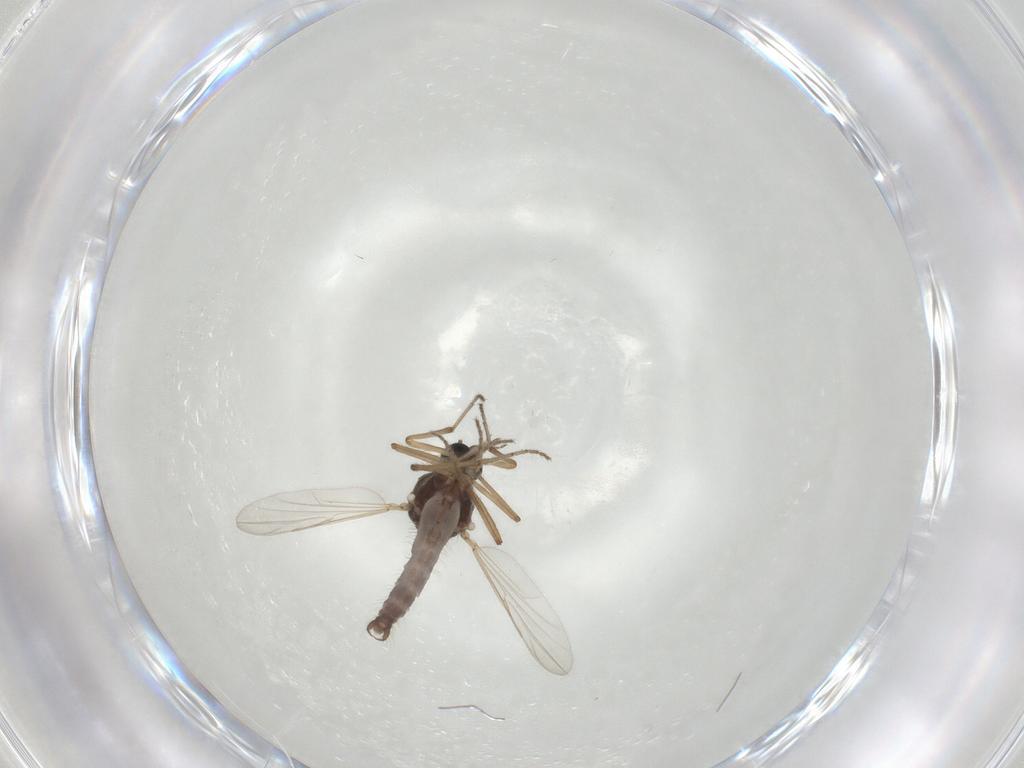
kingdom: Animalia
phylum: Arthropoda
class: Insecta
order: Diptera
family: Ceratopogonidae
